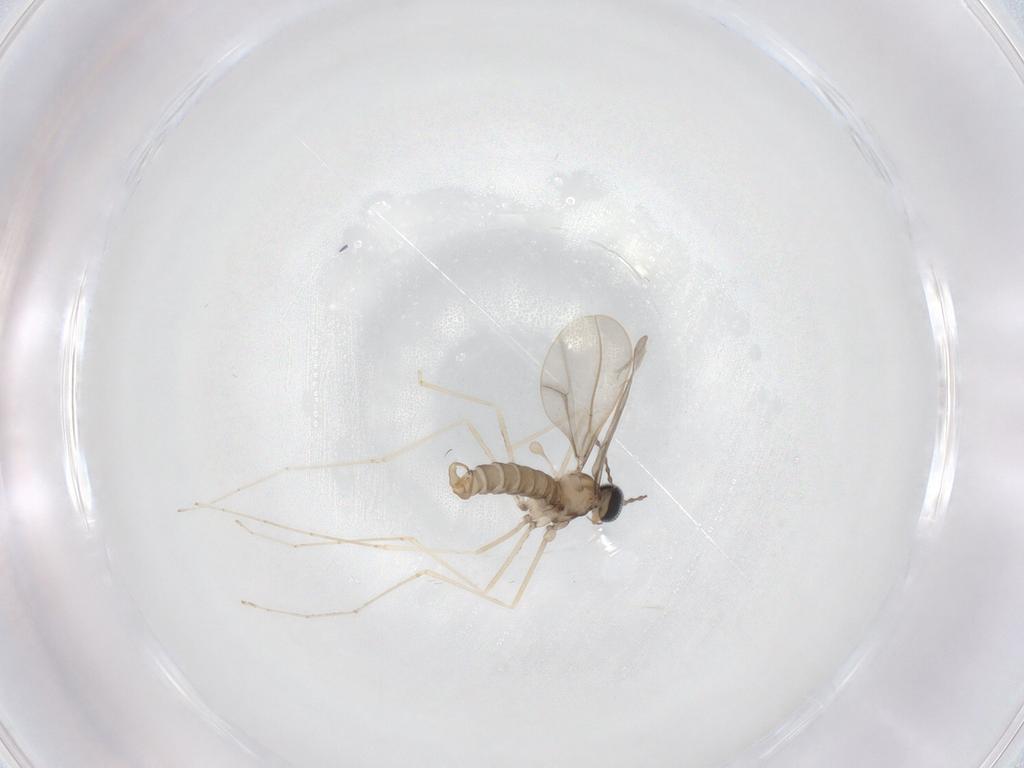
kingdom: Animalia
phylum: Arthropoda
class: Insecta
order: Diptera
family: Cecidomyiidae
